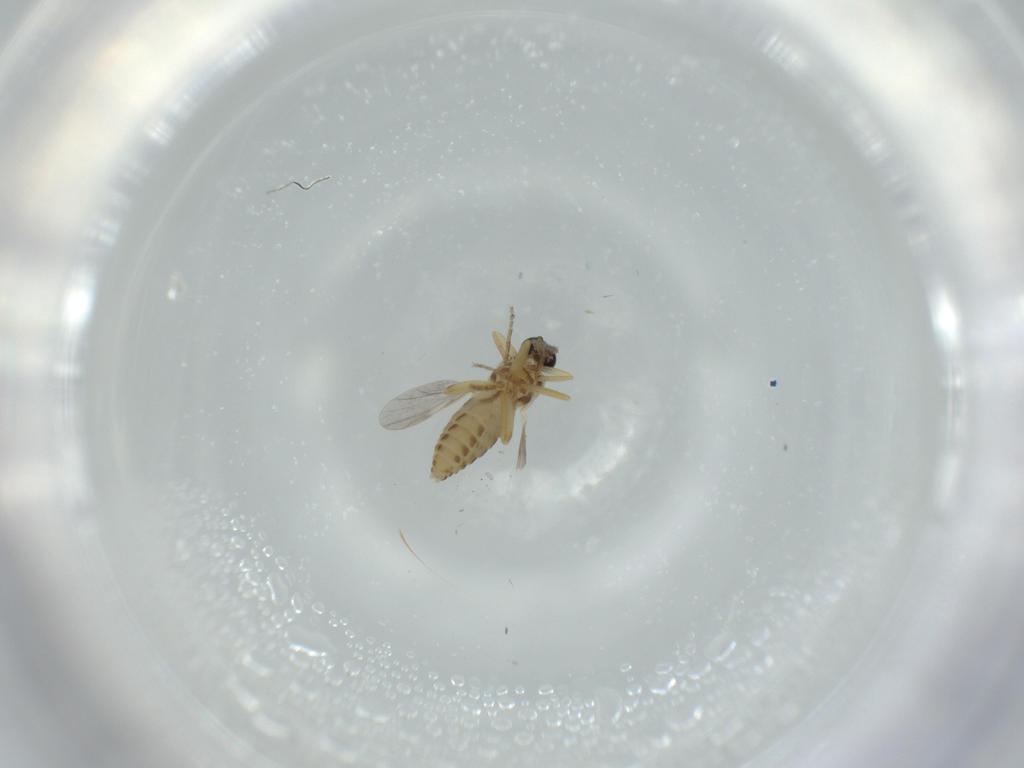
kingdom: Animalia
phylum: Arthropoda
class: Insecta
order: Diptera
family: Ceratopogonidae
